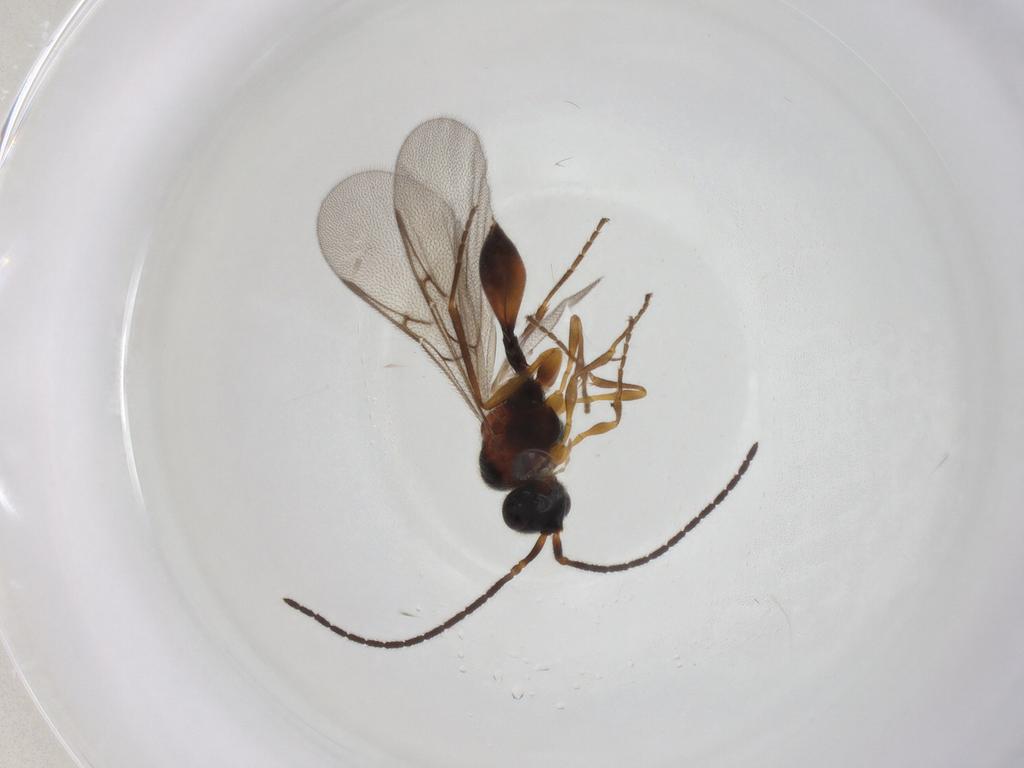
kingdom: Animalia
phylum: Arthropoda
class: Insecta
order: Hymenoptera
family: Diapriidae
